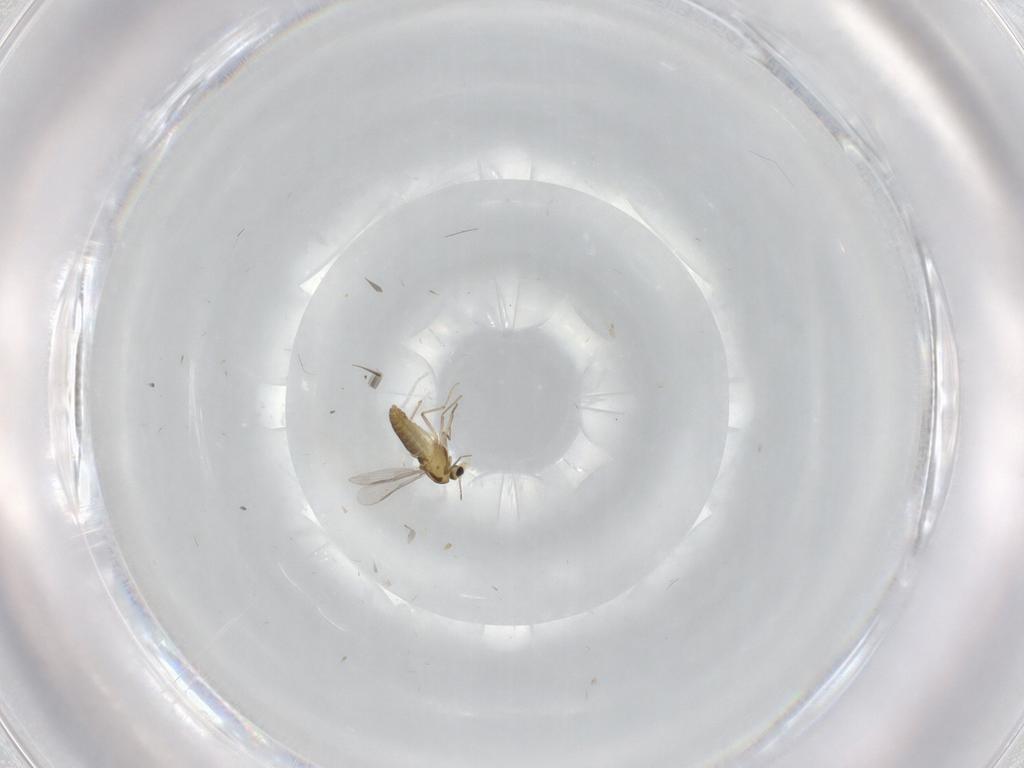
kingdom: Animalia
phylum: Arthropoda
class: Insecta
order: Diptera
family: Chironomidae
